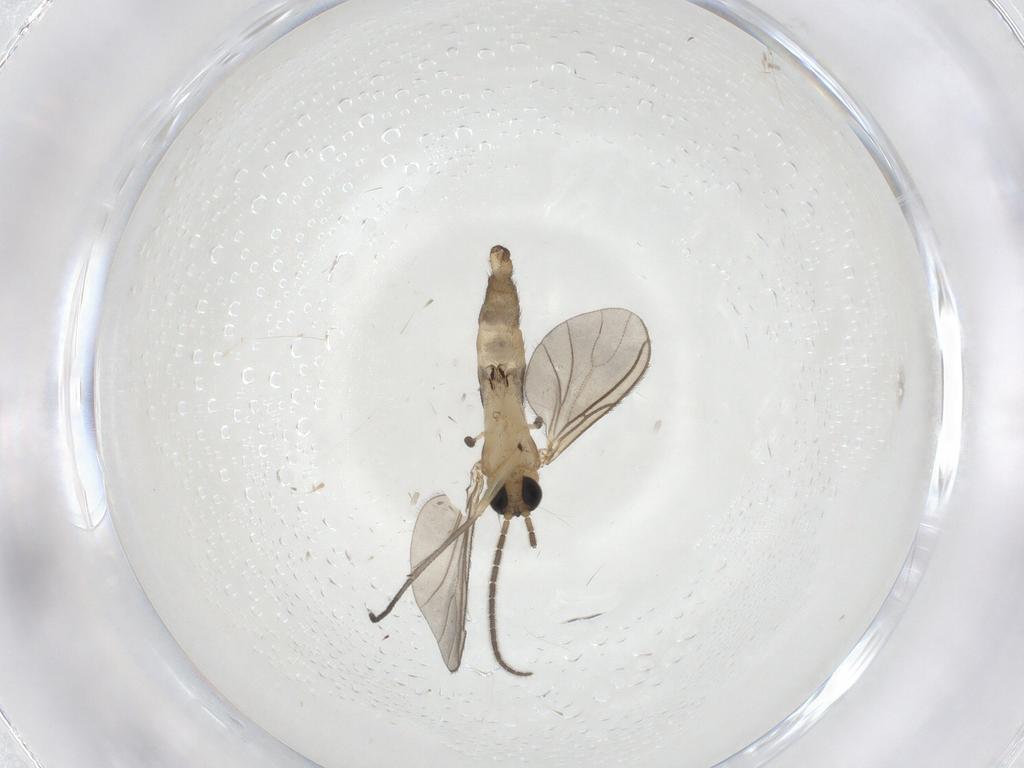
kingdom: Animalia
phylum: Arthropoda
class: Insecta
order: Diptera
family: Sciaridae
